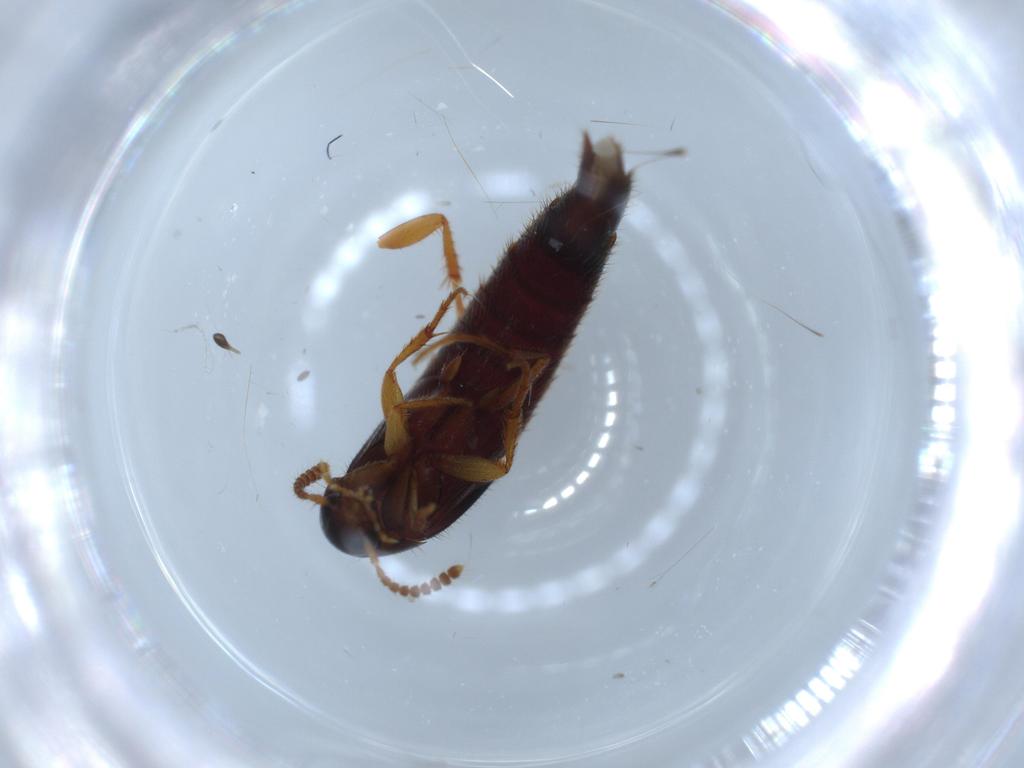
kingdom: Animalia
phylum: Arthropoda
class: Insecta
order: Coleoptera
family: Staphylinidae
